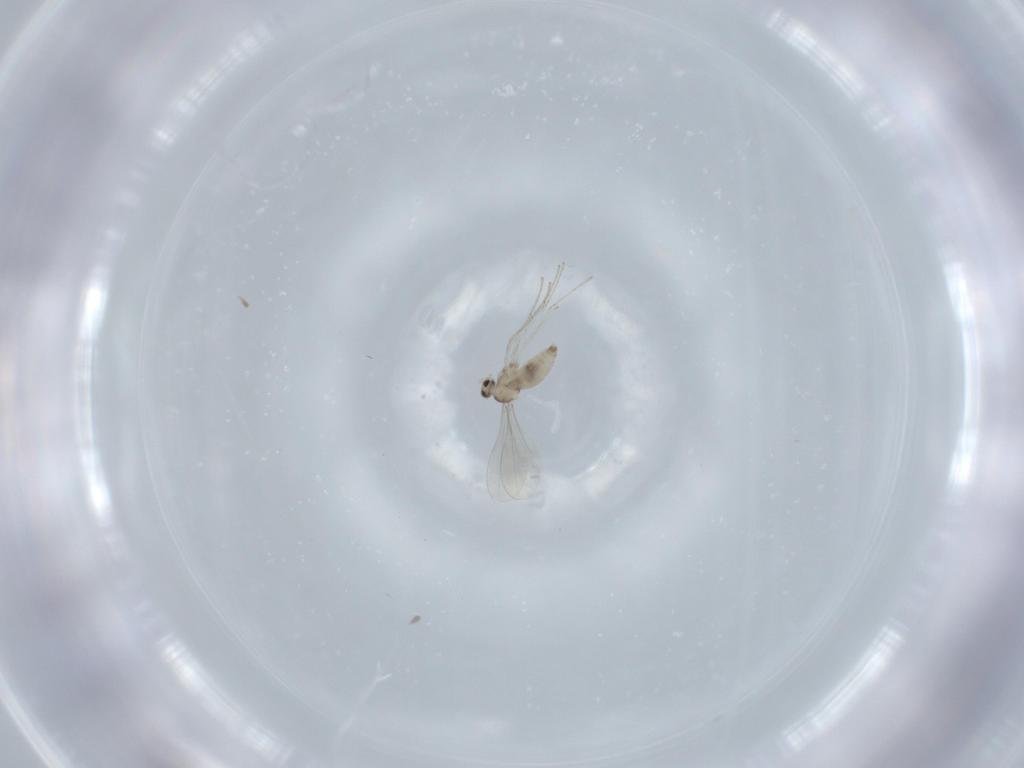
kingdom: Animalia
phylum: Arthropoda
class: Insecta
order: Diptera
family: Cecidomyiidae
